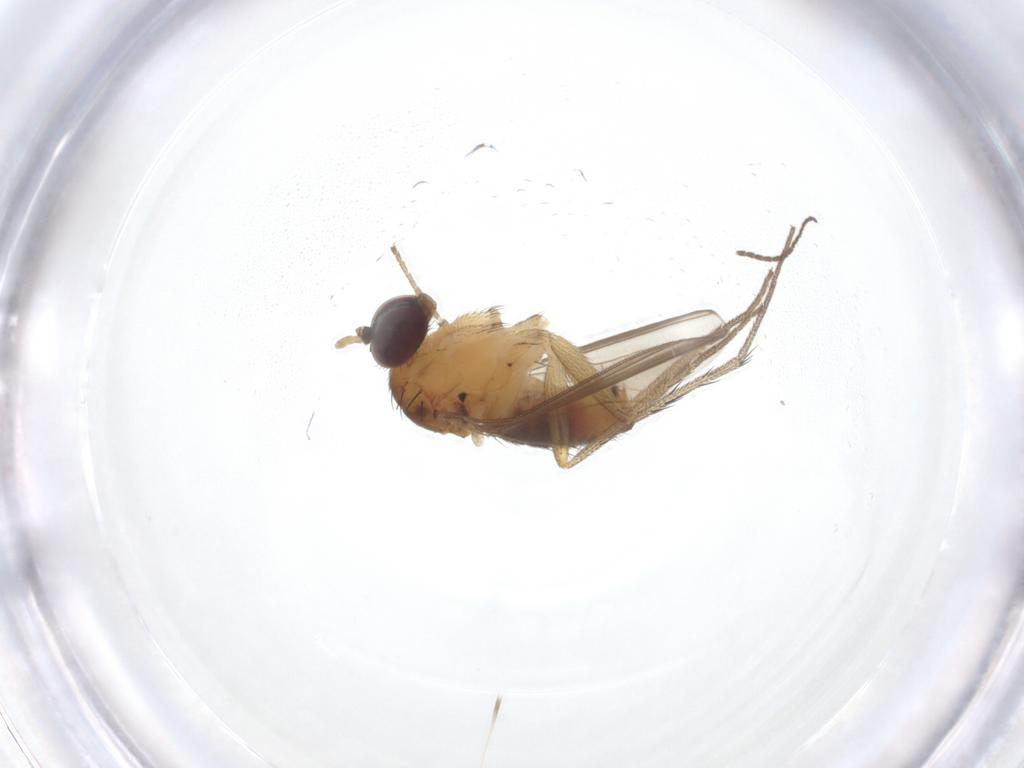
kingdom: Animalia
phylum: Arthropoda
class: Insecta
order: Diptera
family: Sciaridae
